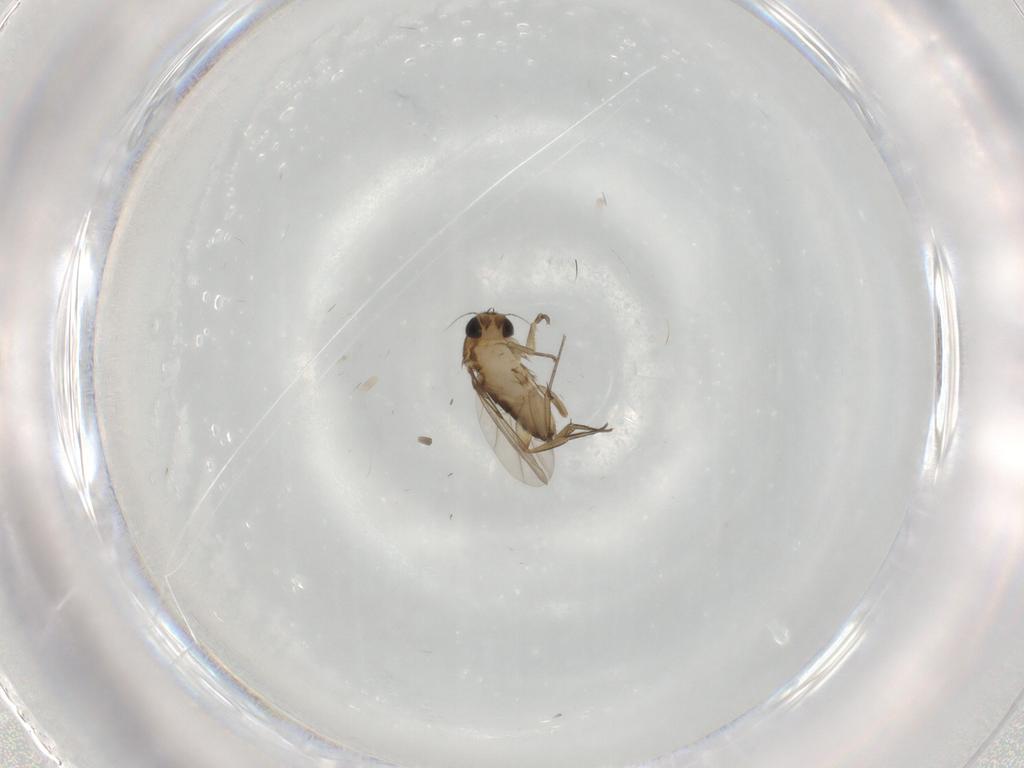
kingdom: Animalia
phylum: Arthropoda
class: Insecta
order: Diptera
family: Phoridae
